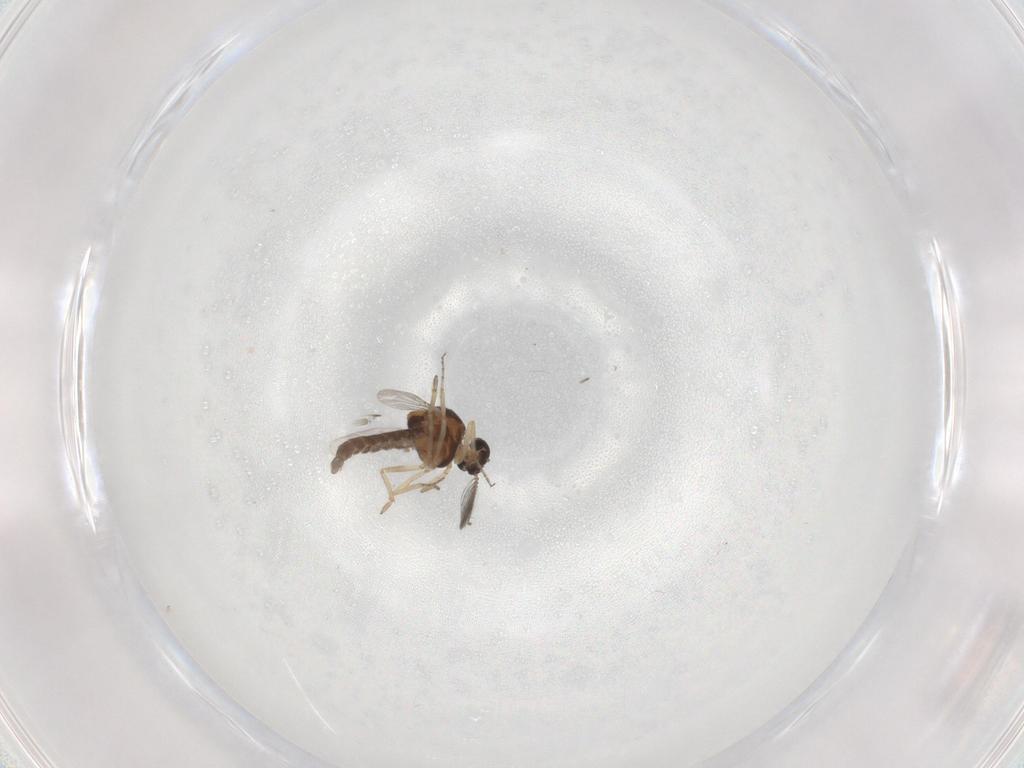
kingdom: Animalia
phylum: Arthropoda
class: Insecta
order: Diptera
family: Ceratopogonidae
